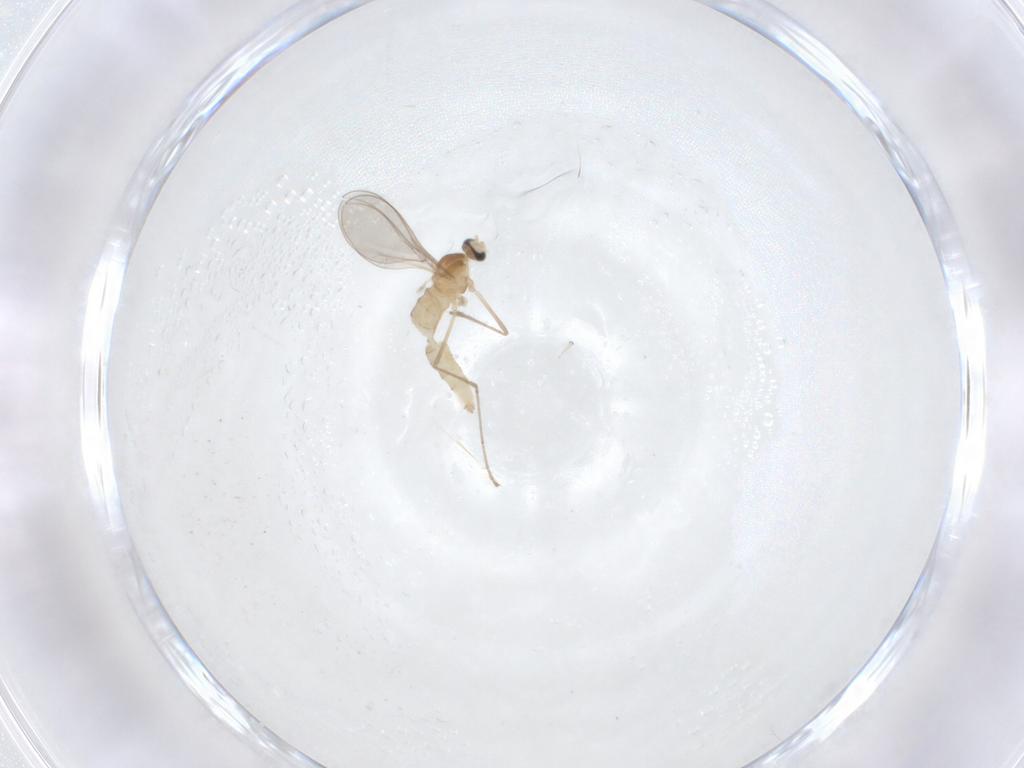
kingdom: Animalia
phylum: Arthropoda
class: Insecta
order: Diptera
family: Cecidomyiidae
